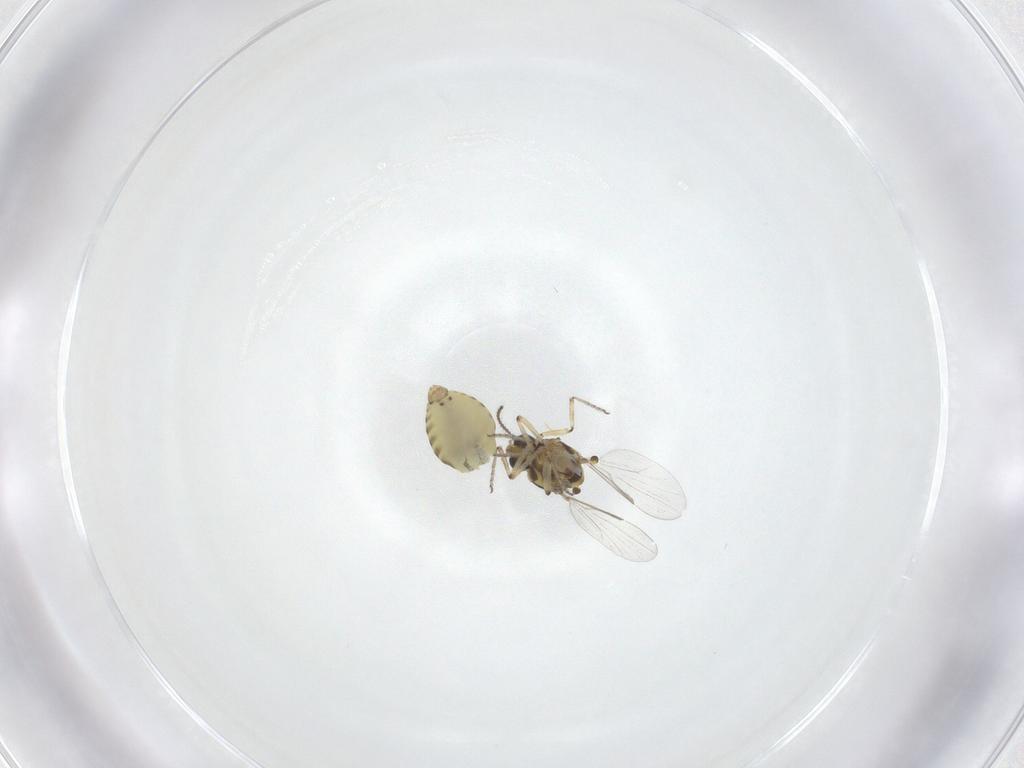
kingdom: Animalia
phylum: Arthropoda
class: Insecta
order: Diptera
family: Ceratopogonidae
